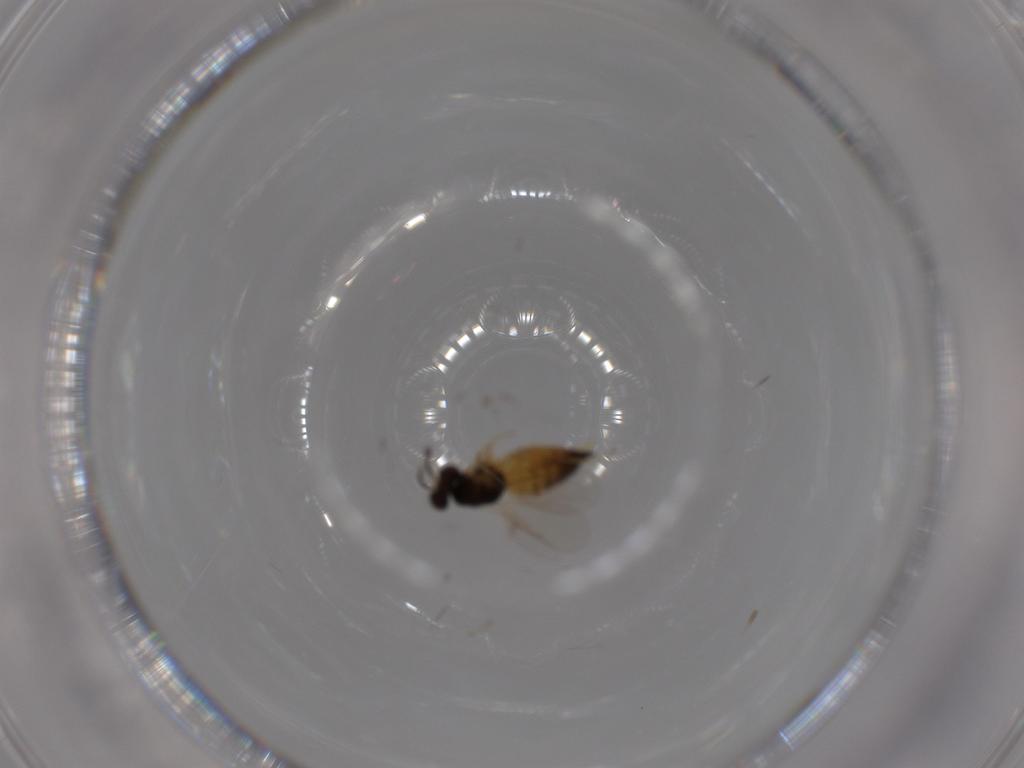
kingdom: Animalia
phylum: Arthropoda
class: Insecta
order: Hymenoptera
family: Eulophidae
